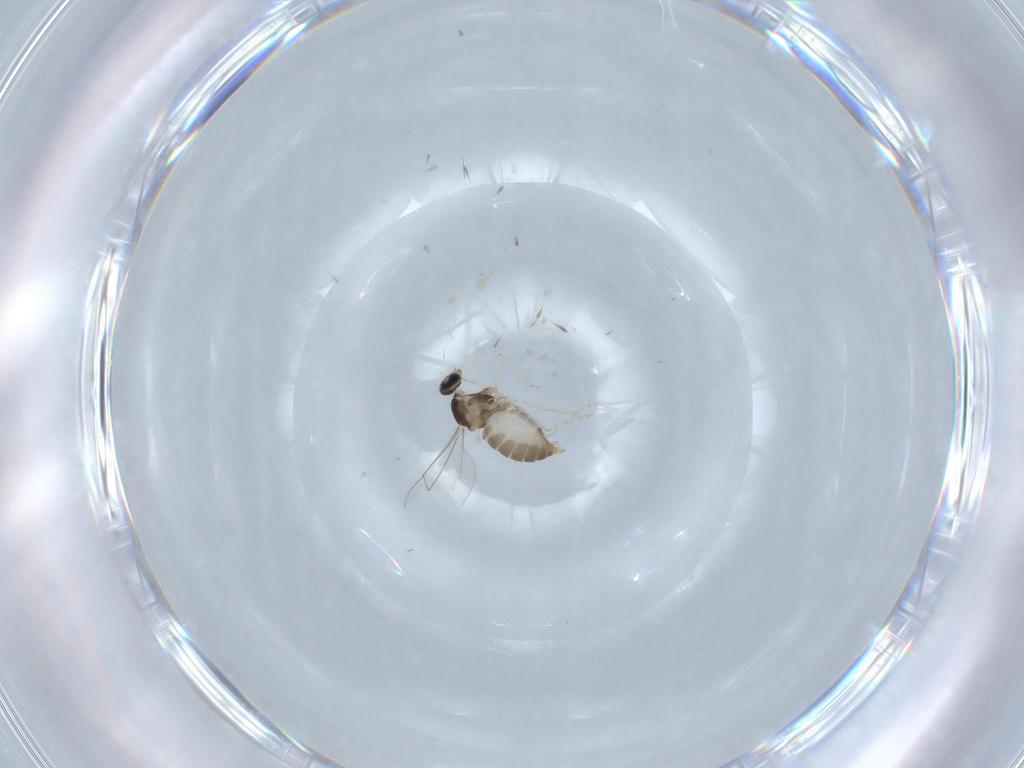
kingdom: Animalia
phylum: Arthropoda
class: Insecta
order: Diptera
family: Cecidomyiidae
